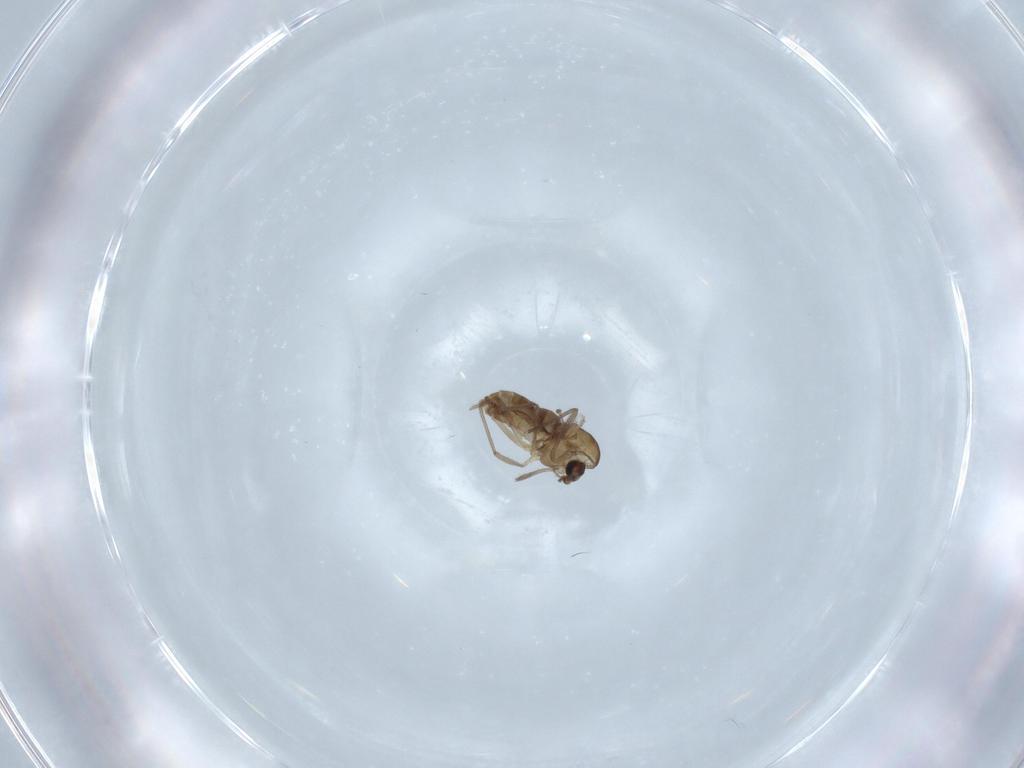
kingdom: Animalia
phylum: Arthropoda
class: Insecta
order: Diptera
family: Chironomidae
